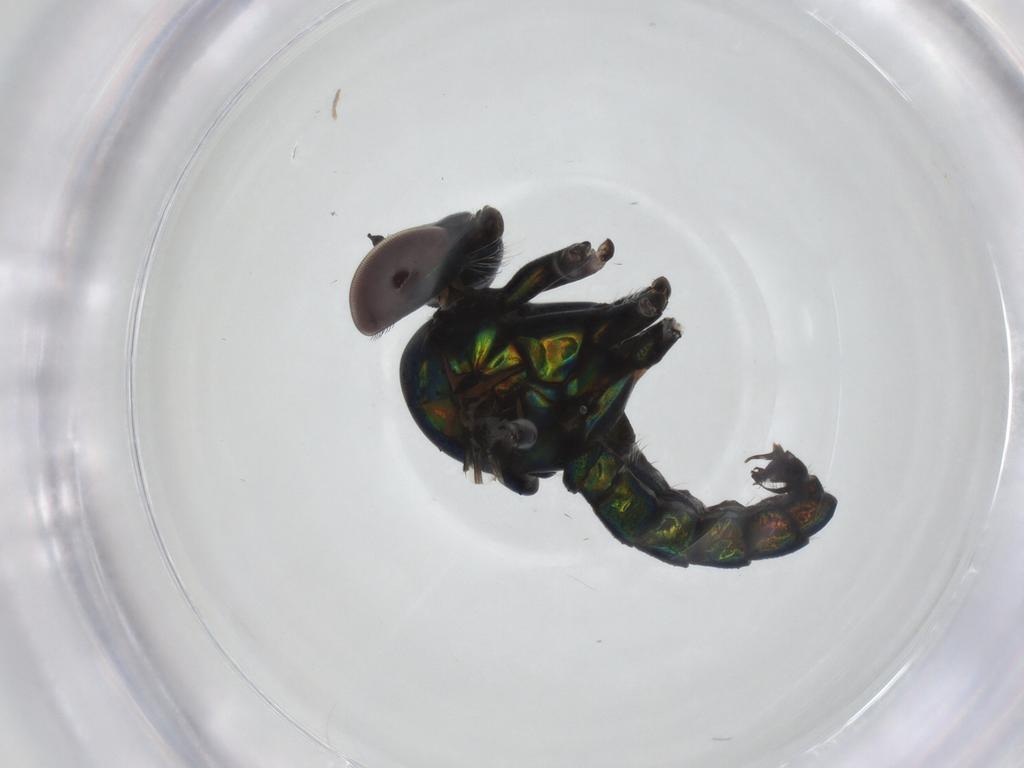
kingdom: Animalia
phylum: Arthropoda
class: Insecta
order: Diptera
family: Dolichopodidae
